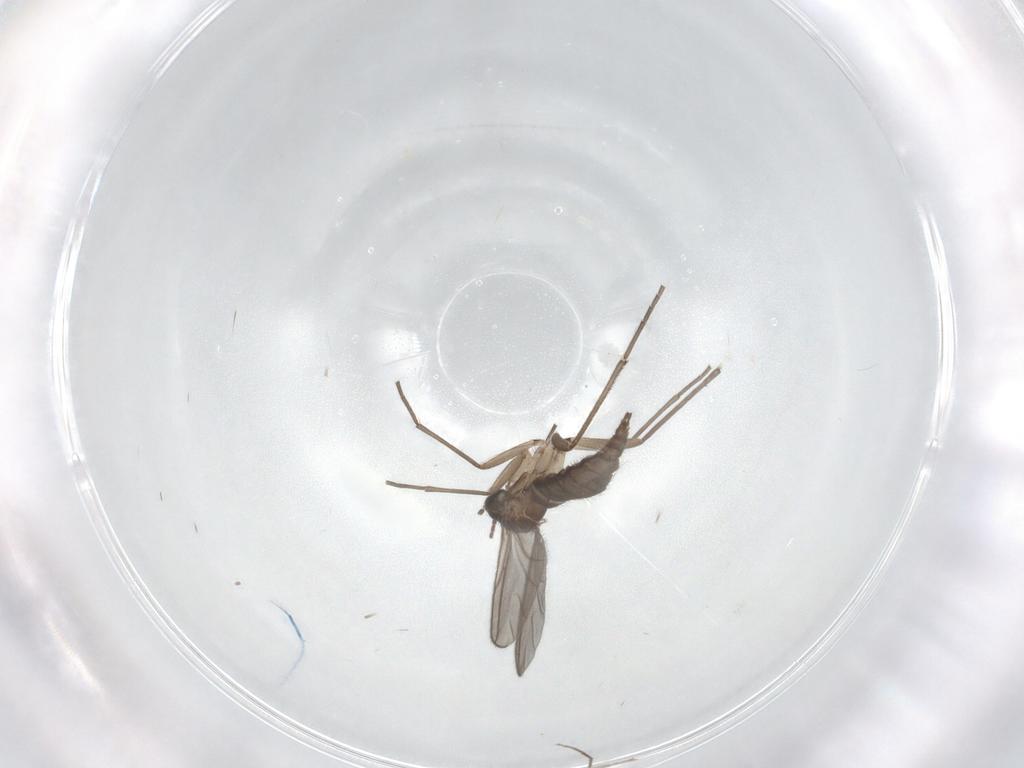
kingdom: Animalia
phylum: Arthropoda
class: Insecta
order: Diptera
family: Sciaridae
